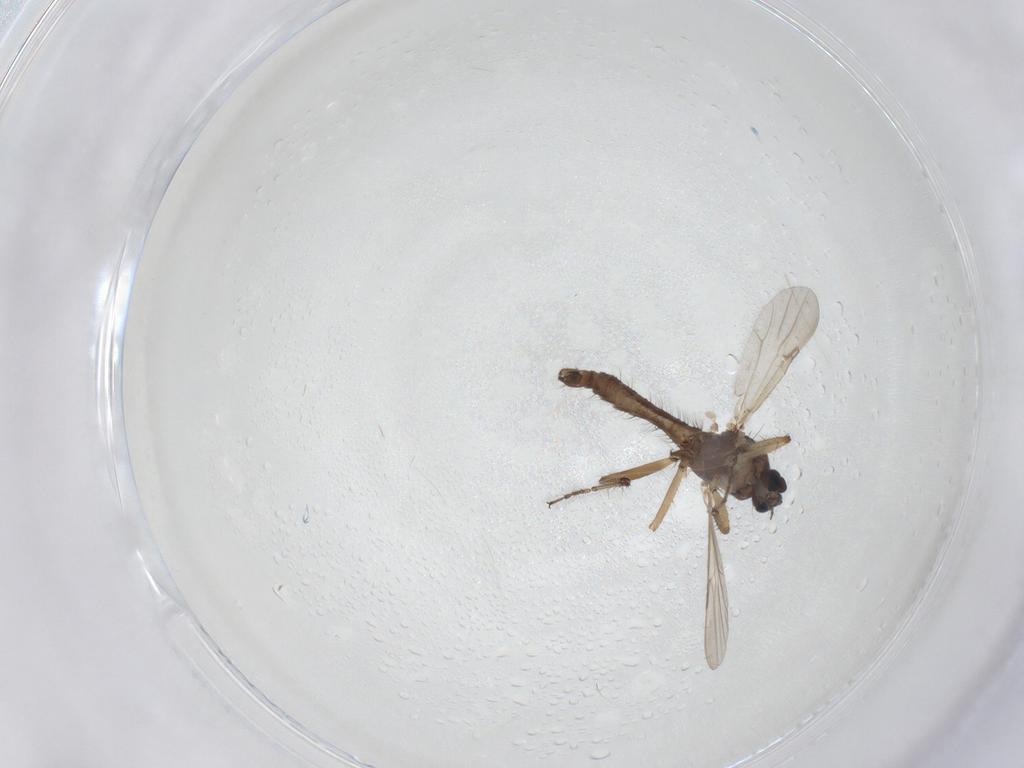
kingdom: Animalia
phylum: Arthropoda
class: Insecta
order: Diptera
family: Ceratopogonidae
